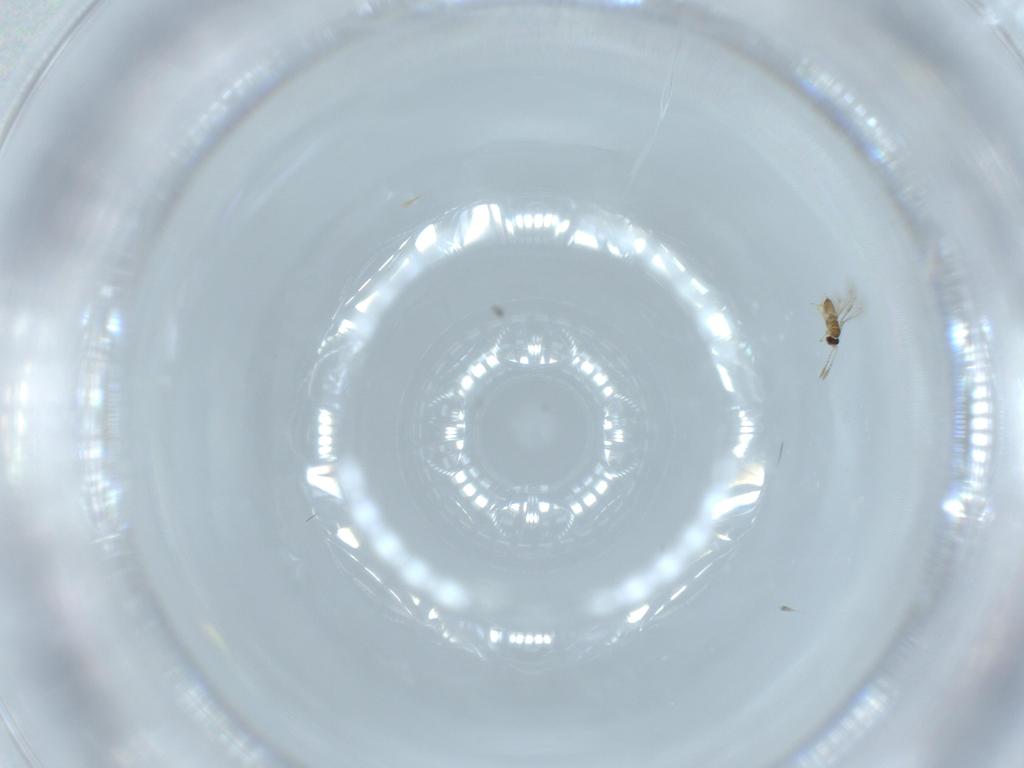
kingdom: Animalia
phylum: Arthropoda
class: Insecta
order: Hymenoptera
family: Mymaridae
